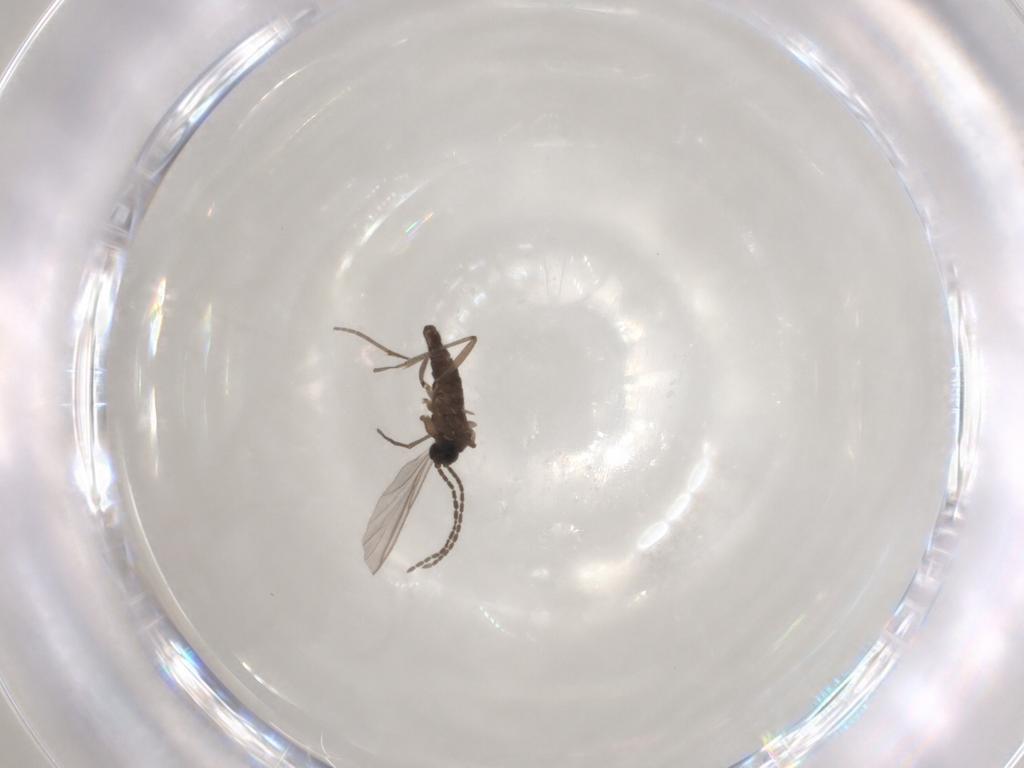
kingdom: Animalia
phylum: Arthropoda
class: Insecta
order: Diptera
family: Sciaridae
